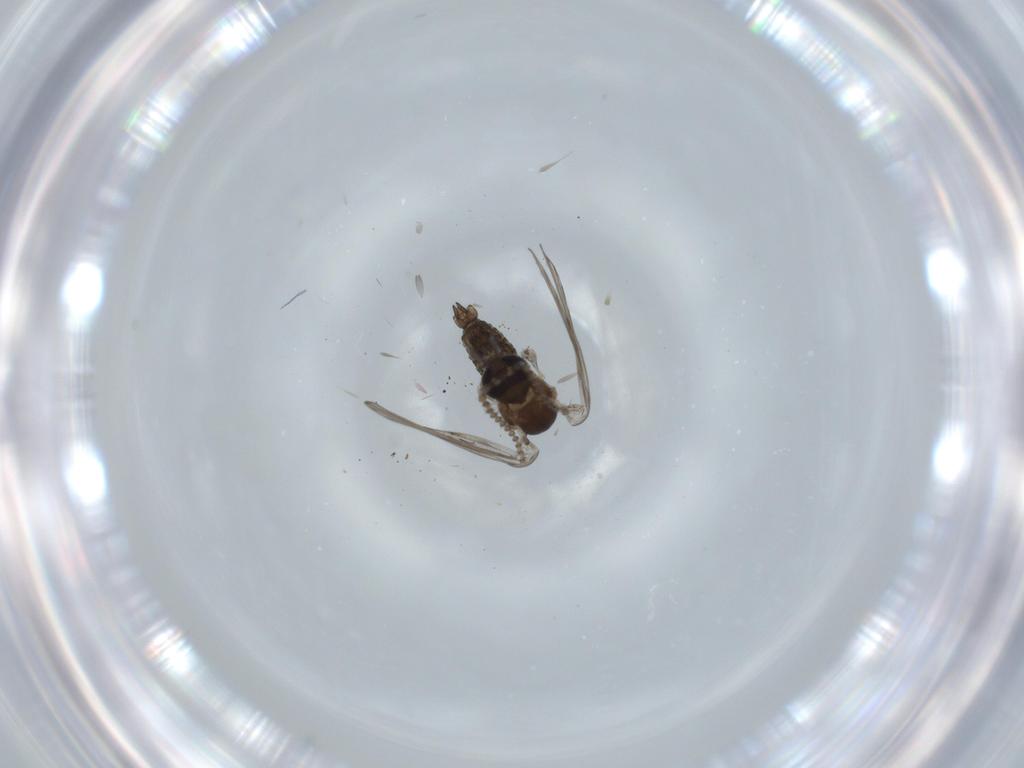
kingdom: Animalia
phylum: Arthropoda
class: Insecta
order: Diptera
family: Psychodidae
